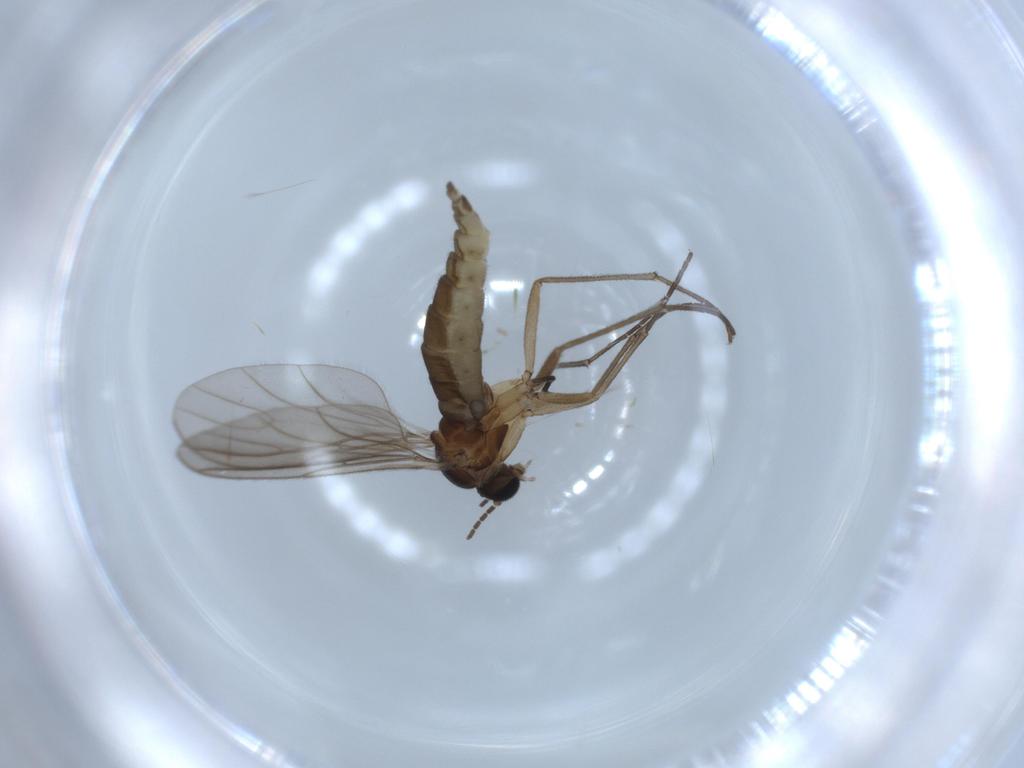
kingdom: Animalia
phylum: Arthropoda
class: Insecta
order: Diptera
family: Sciaridae
